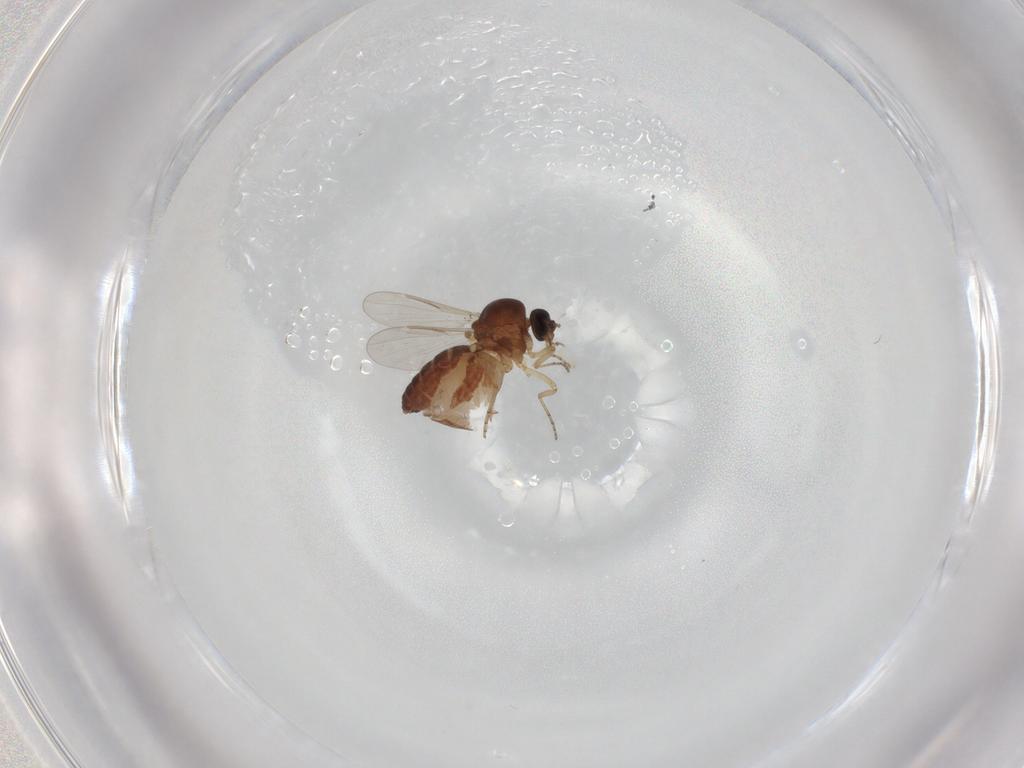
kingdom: Animalia
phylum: Arthropoda
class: Insecta
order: Diptera
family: Ceratopogonidae
